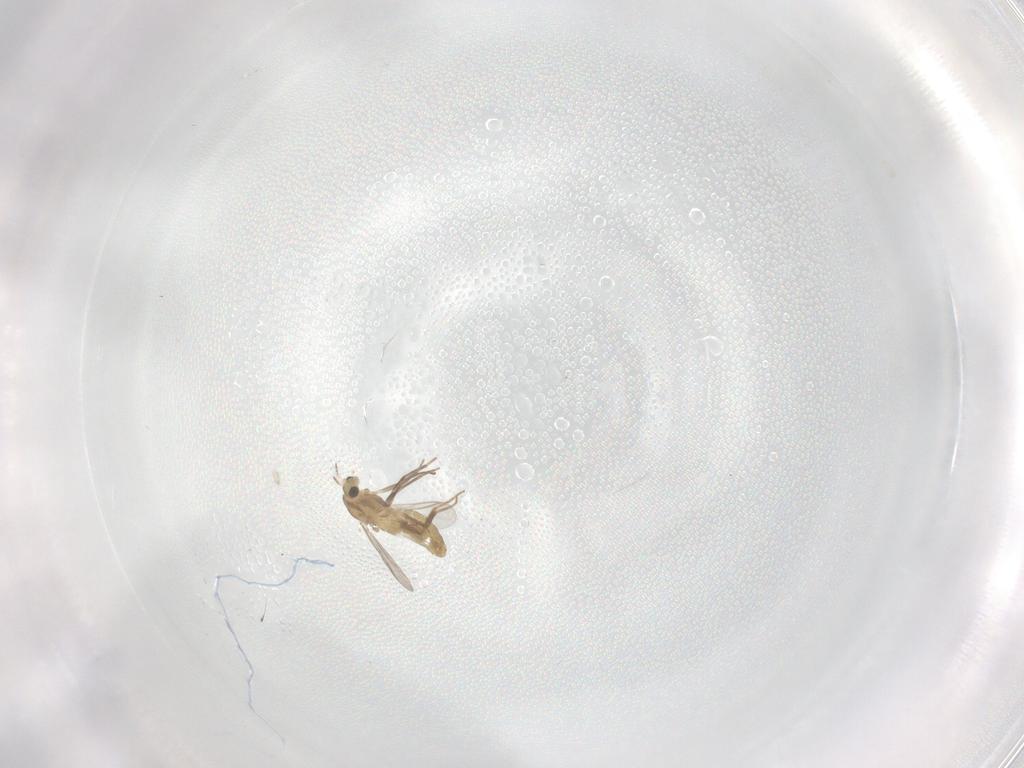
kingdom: Animalia
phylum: Arthropoda
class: Insecta
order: Diptera
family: Chironomidae
